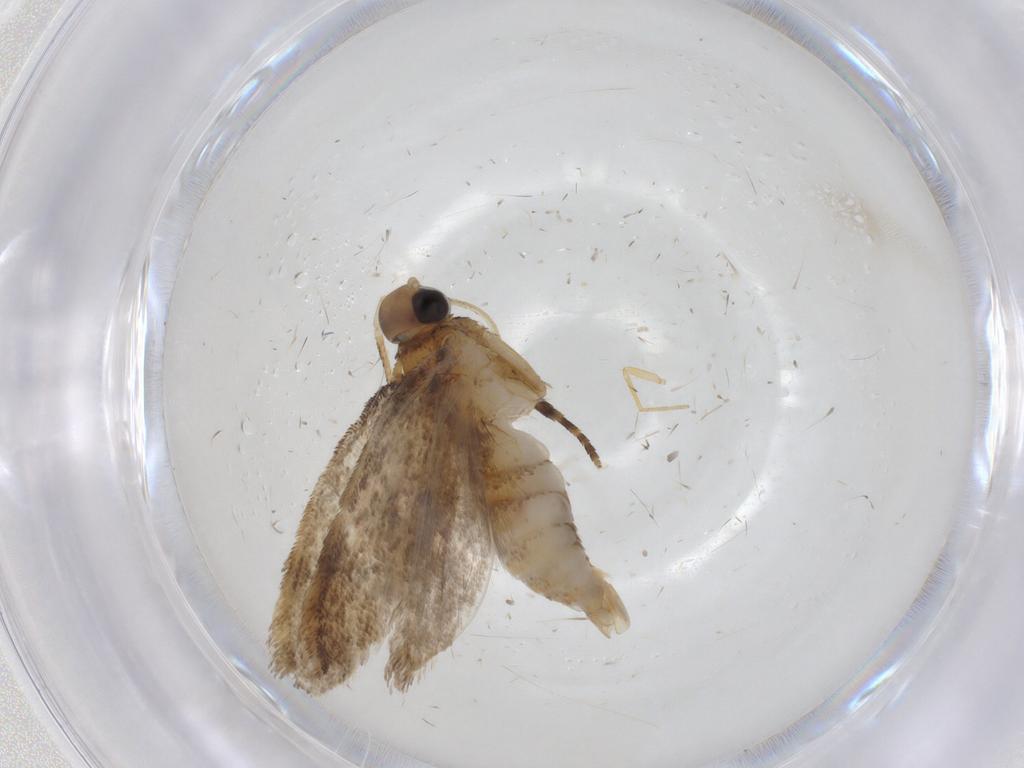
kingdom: Animalia
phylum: Arthropoda
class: Insecta
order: Lepidoptera
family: Oecophoridae
